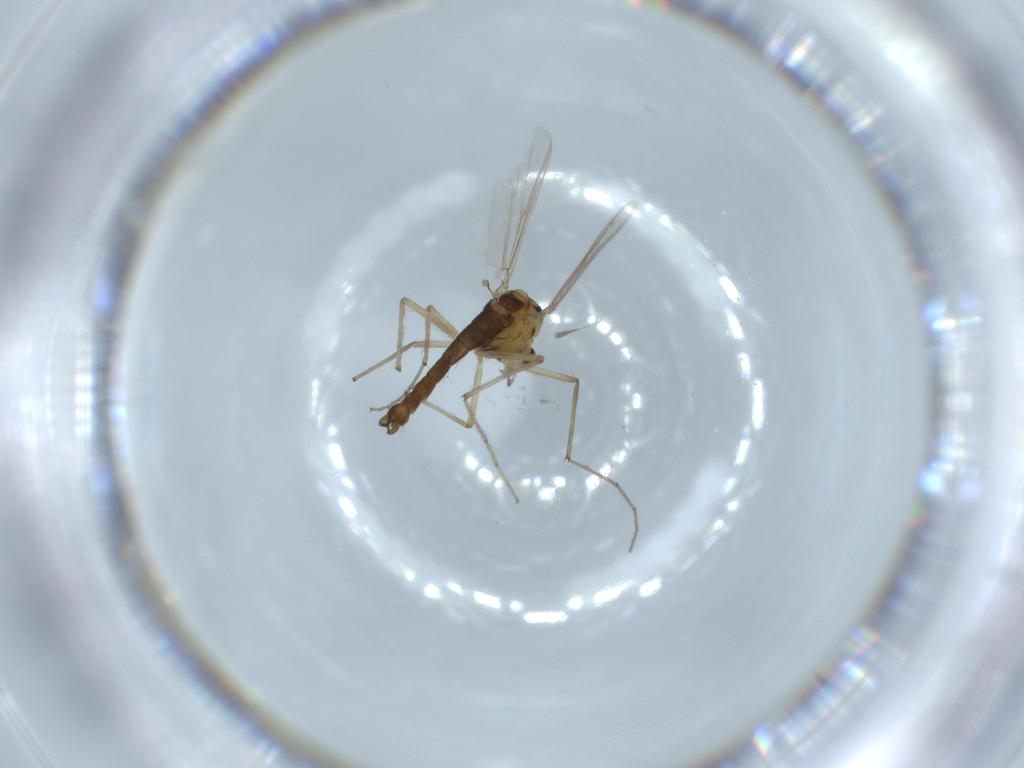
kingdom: Animalia
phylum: Arthropoda
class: Insecta
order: Diptera
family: Chironomidae
